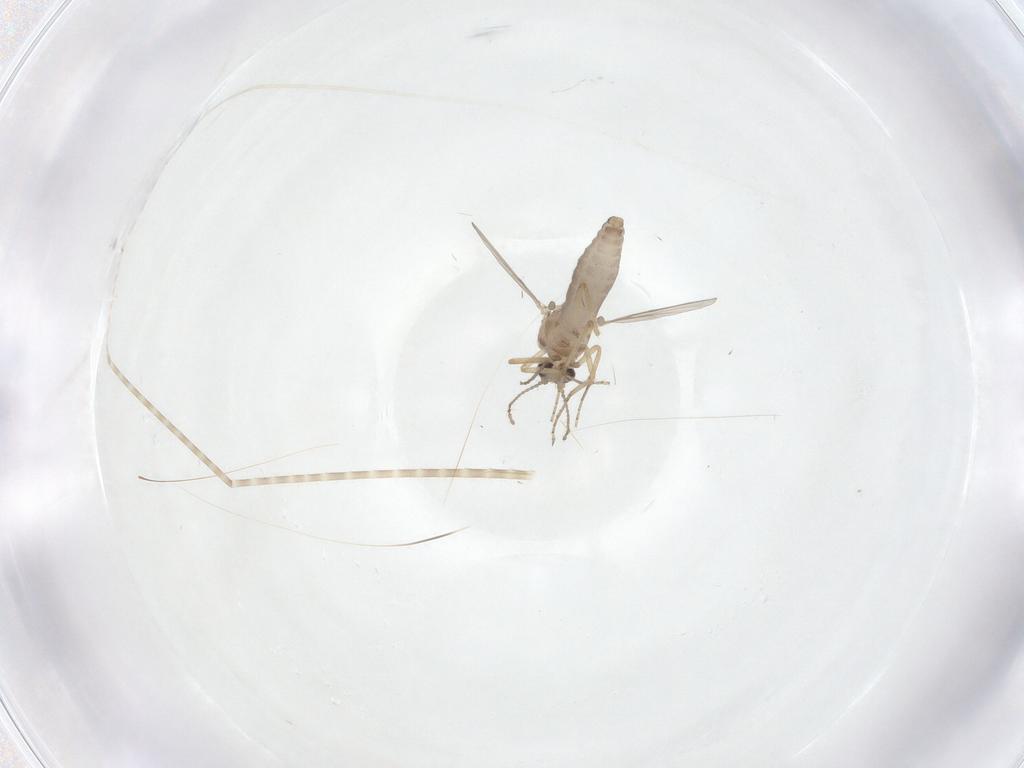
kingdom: Animalia
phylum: Arthropoda
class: Insecta
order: Diptera
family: Ceratopogonidae
